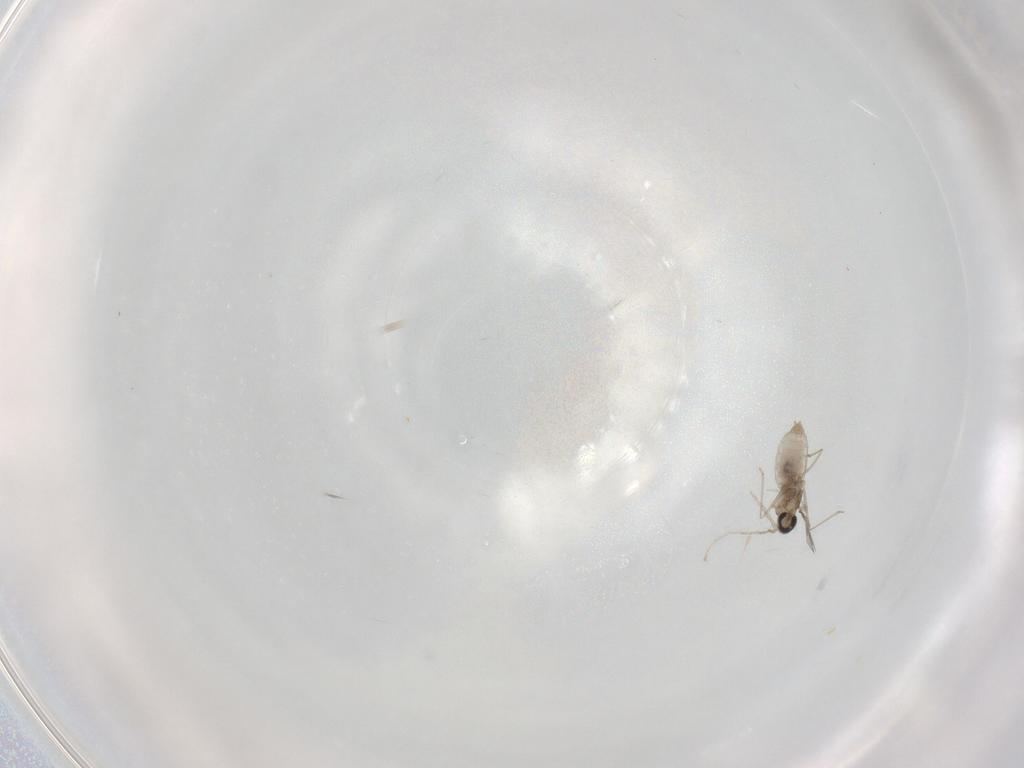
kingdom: Animalia
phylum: Arthropoda
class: Insecta
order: Diptera
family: Cecidomyiidae
